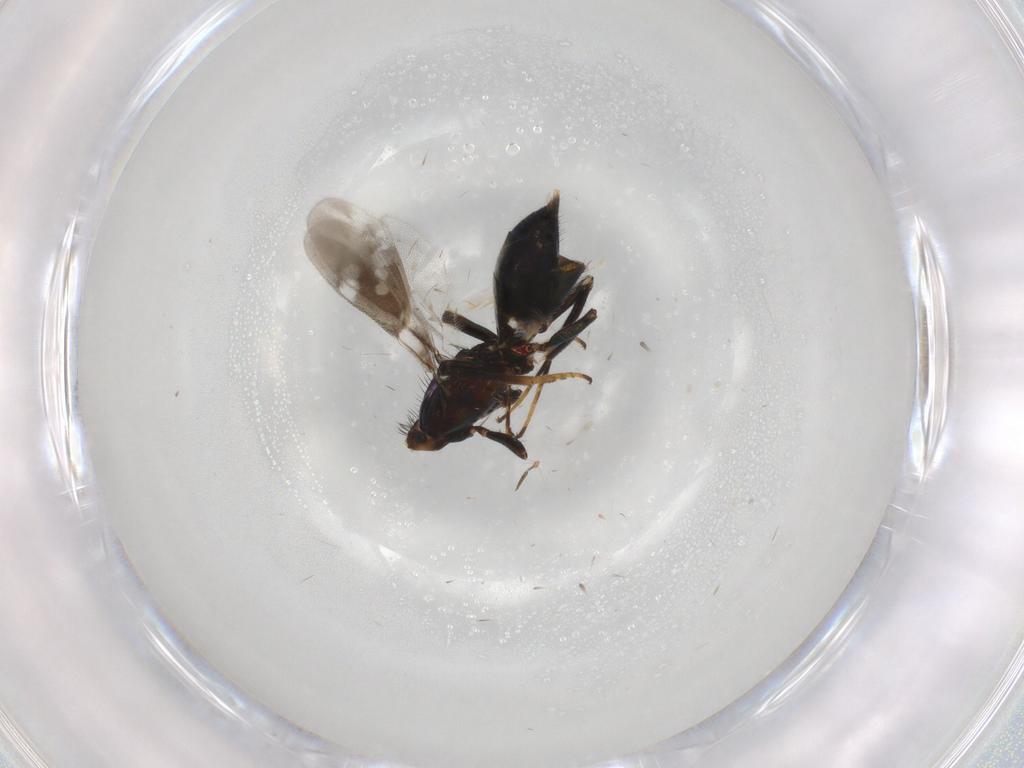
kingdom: Animalia
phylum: Arthropoda
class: Insecta
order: Hymenoptera
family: Eupelmidae
